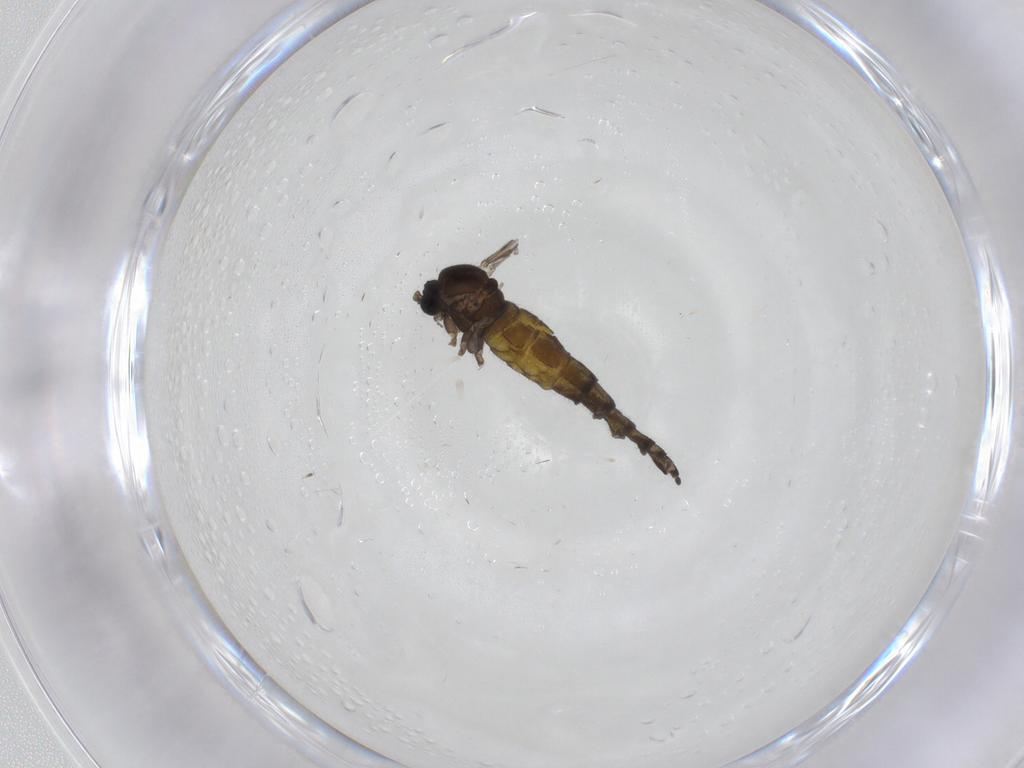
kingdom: Animalia
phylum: Arthropoda
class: Insecta
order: Diptera
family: Sciaridae
